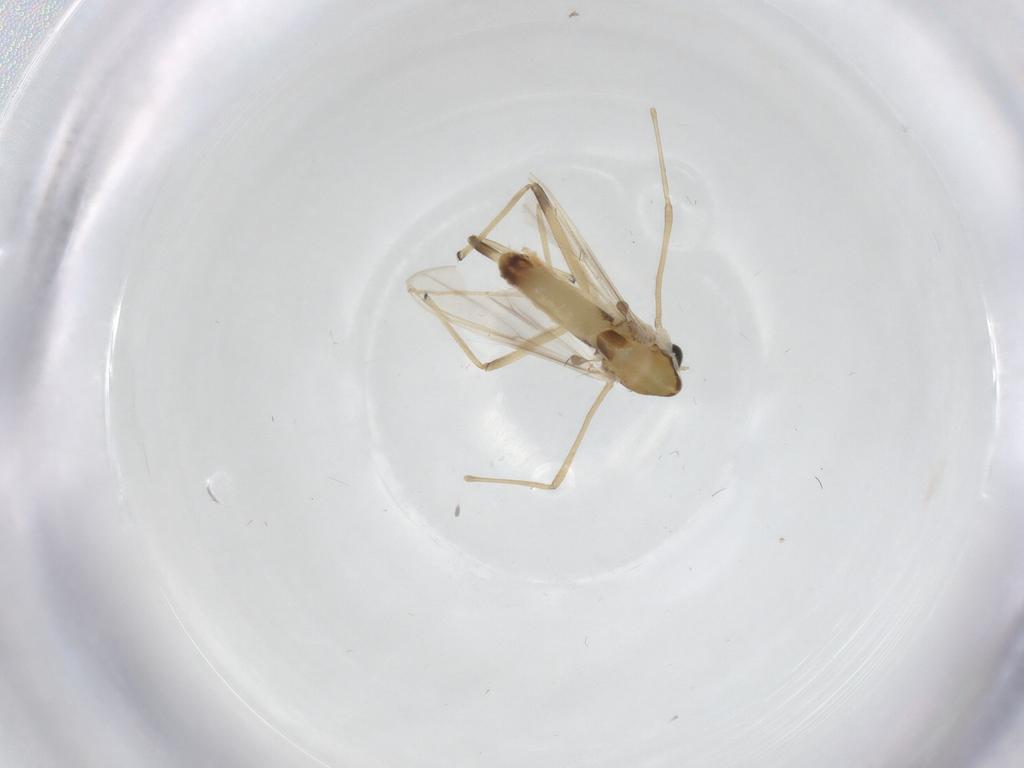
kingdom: Animalia
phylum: Arthropoda
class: Insecta
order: Diptera
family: Chironomidae
